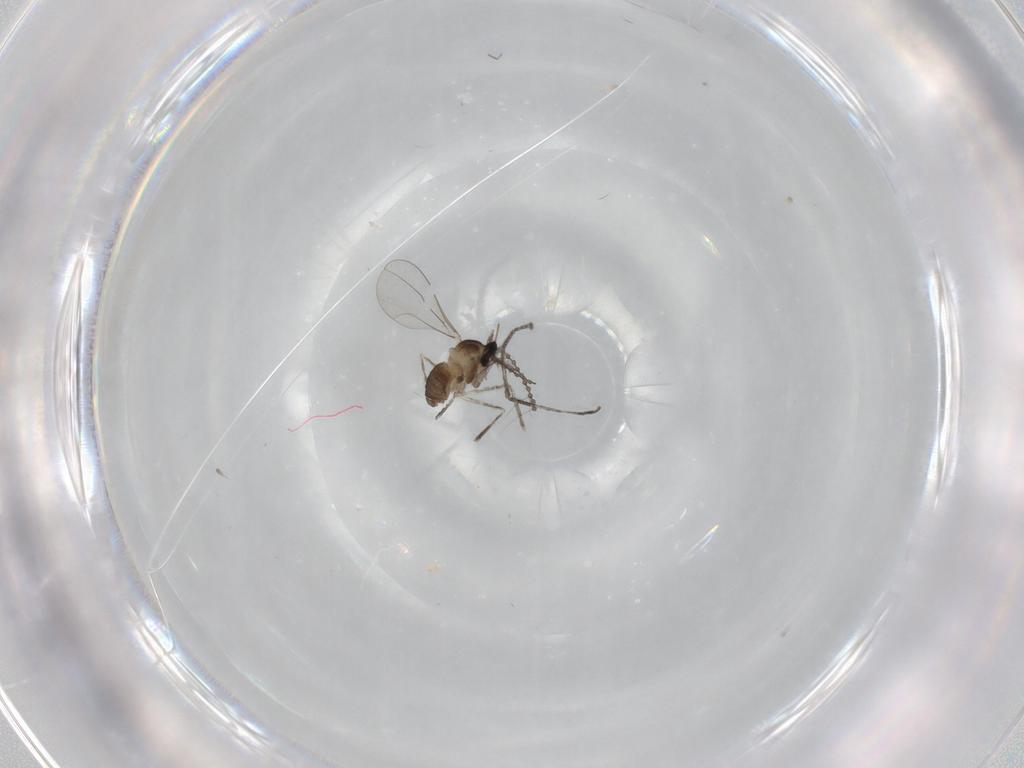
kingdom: Animalia
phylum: Arthropoda
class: Insecta
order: Diptera
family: Cecidomyiidae
